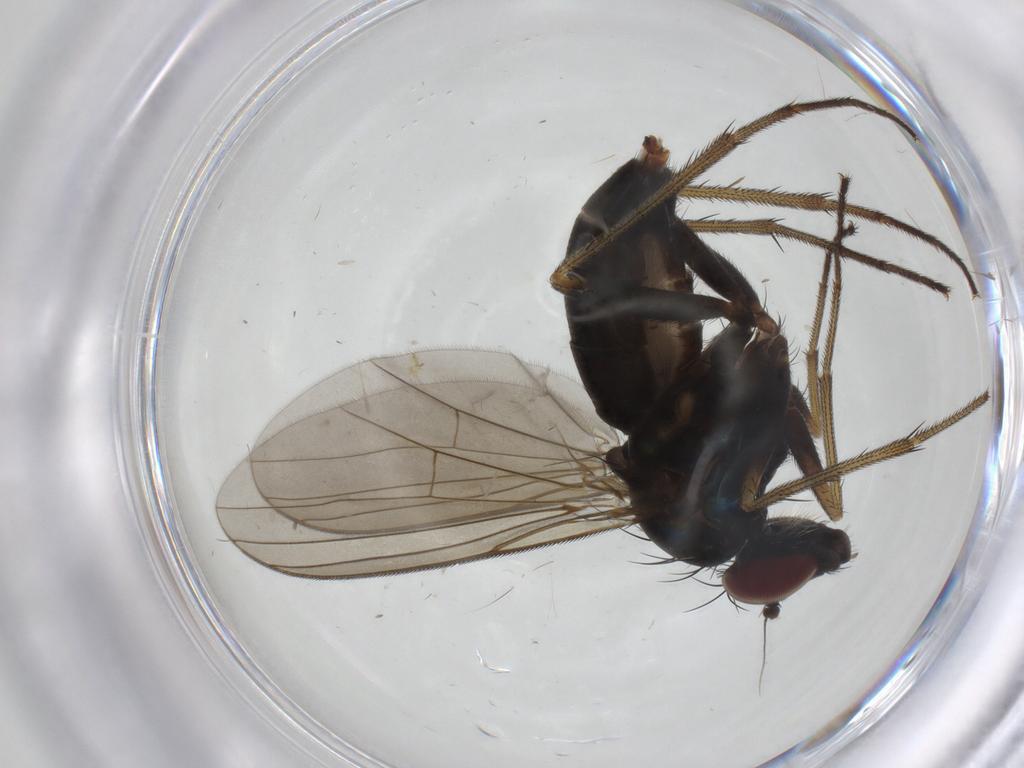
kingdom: Animalia
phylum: Arthropoda
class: Insecta
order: Diptera
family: Dolichopodidae
